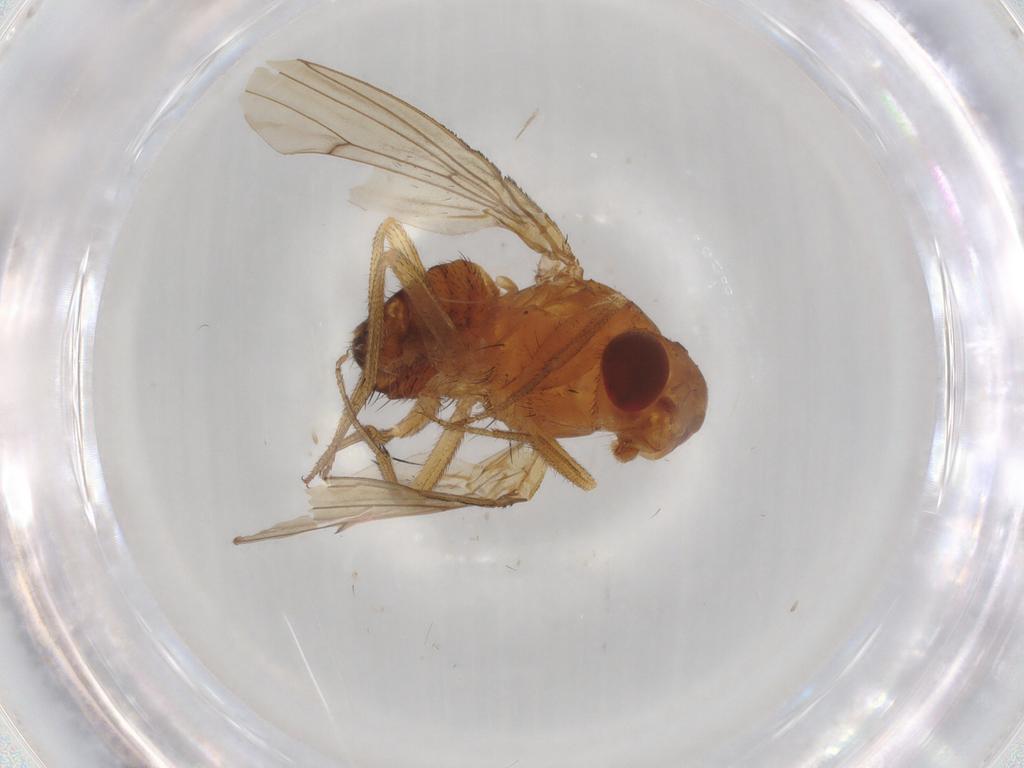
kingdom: Animalia
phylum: Arthropoda
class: Insecta
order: Diptera
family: Drosophilidae
